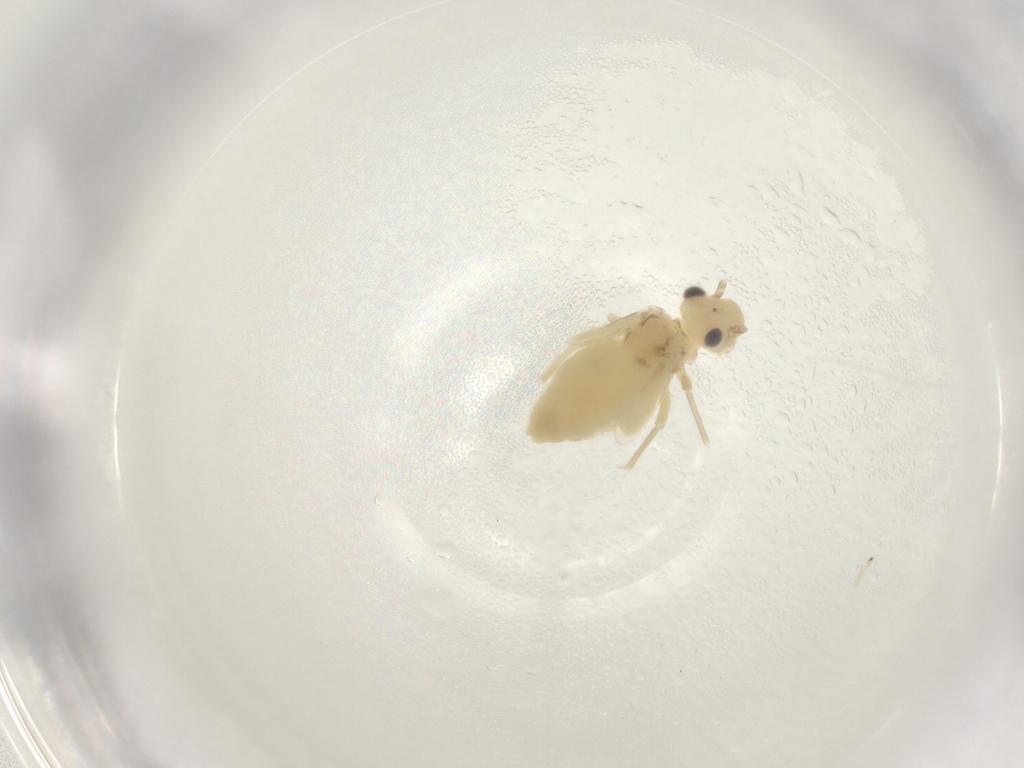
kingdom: Animalia
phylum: Arthropoda
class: Insecta
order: Psocodea
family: Caeciliusidae
